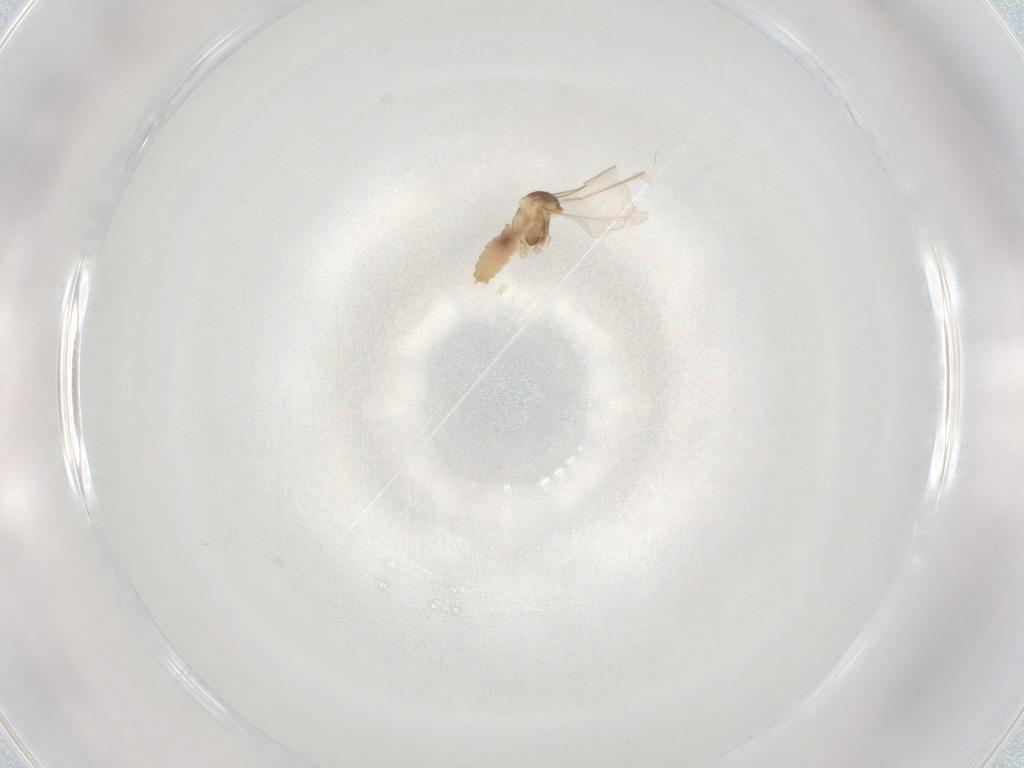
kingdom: Animalia
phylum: Arthropoda
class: Insecta
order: Diptera
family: Cecidomyiidae
